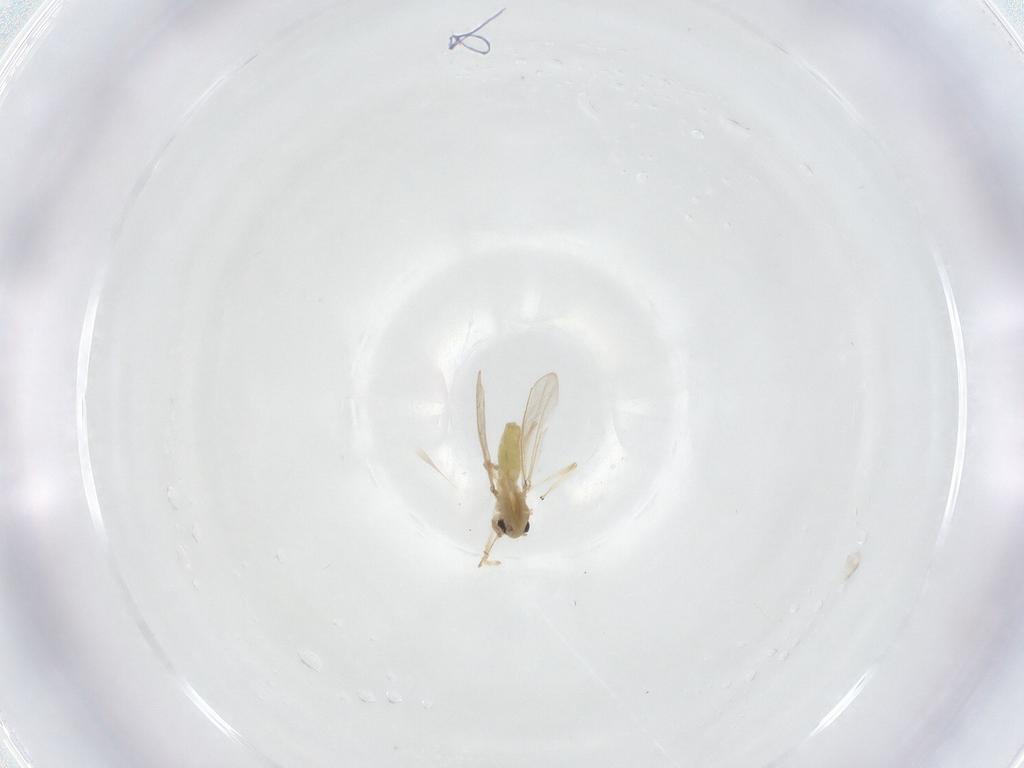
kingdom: Animalia
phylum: Arthropoda
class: Insecta
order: Diptera
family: Chironomidae
